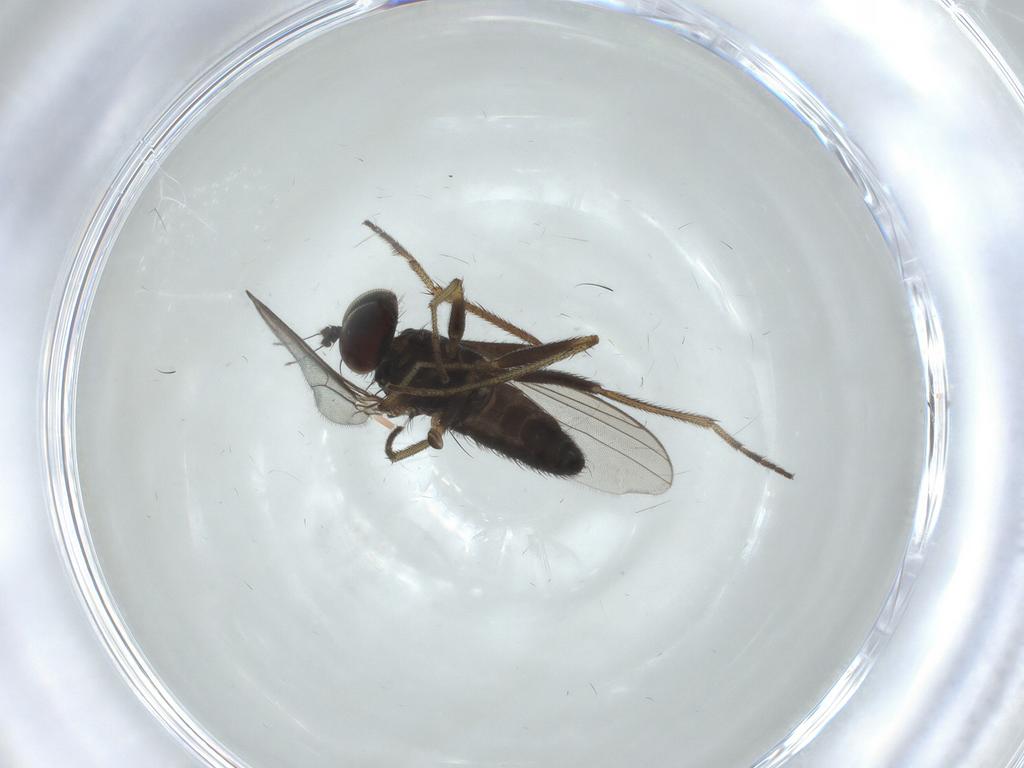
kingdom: Animalia
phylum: Arthropoda
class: Insecta
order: Diptera
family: Phoridae
